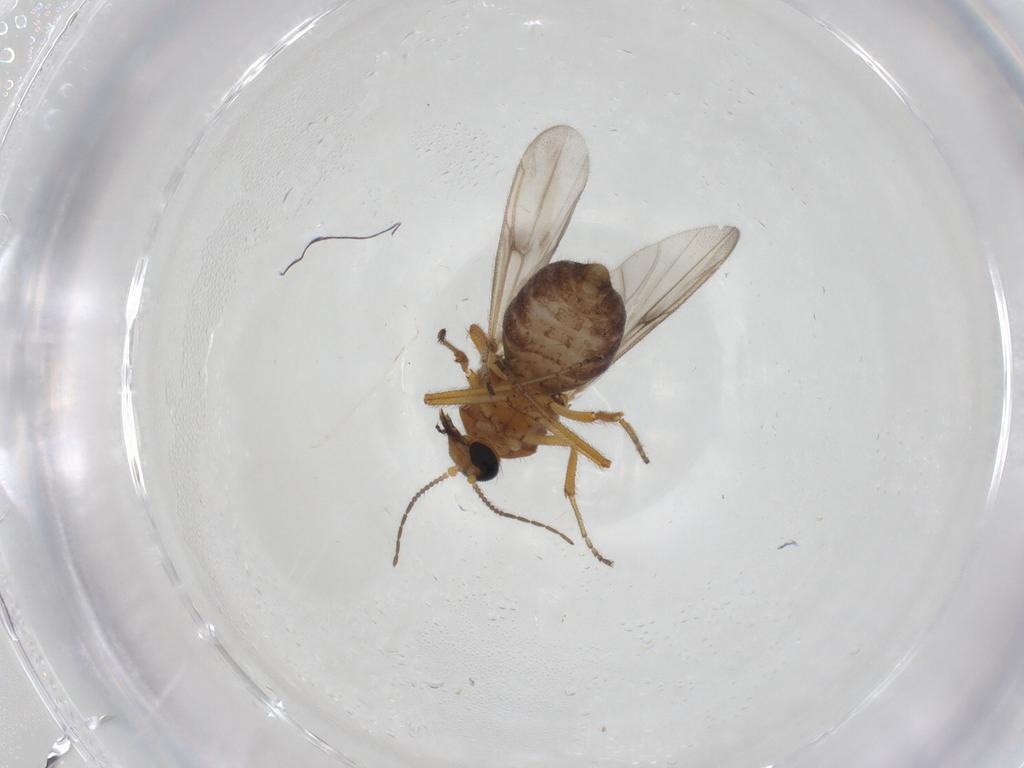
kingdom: Animalia
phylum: Arthropoda
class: Insecta
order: Diptera
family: Ceratopogonidae
